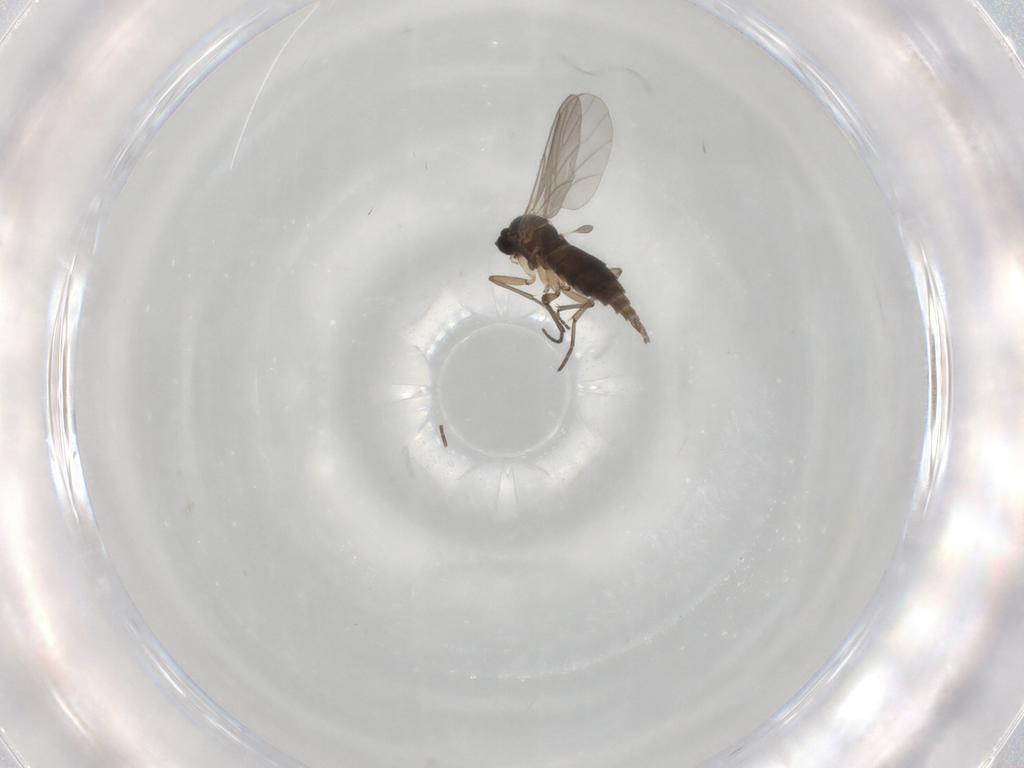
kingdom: Animalia
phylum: Arthropoda
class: Insecta
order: Diptera
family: Sciaridae
